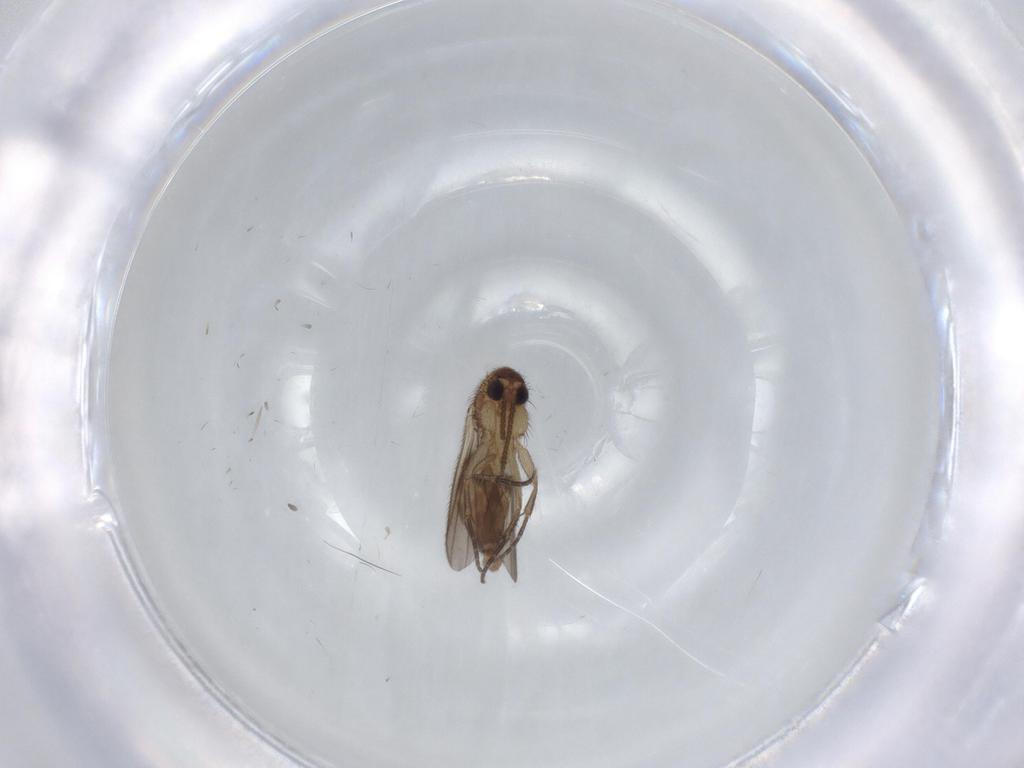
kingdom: Animalia
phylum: Arthropoda
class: Insecta
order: Diptera
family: Mycetophilidae
